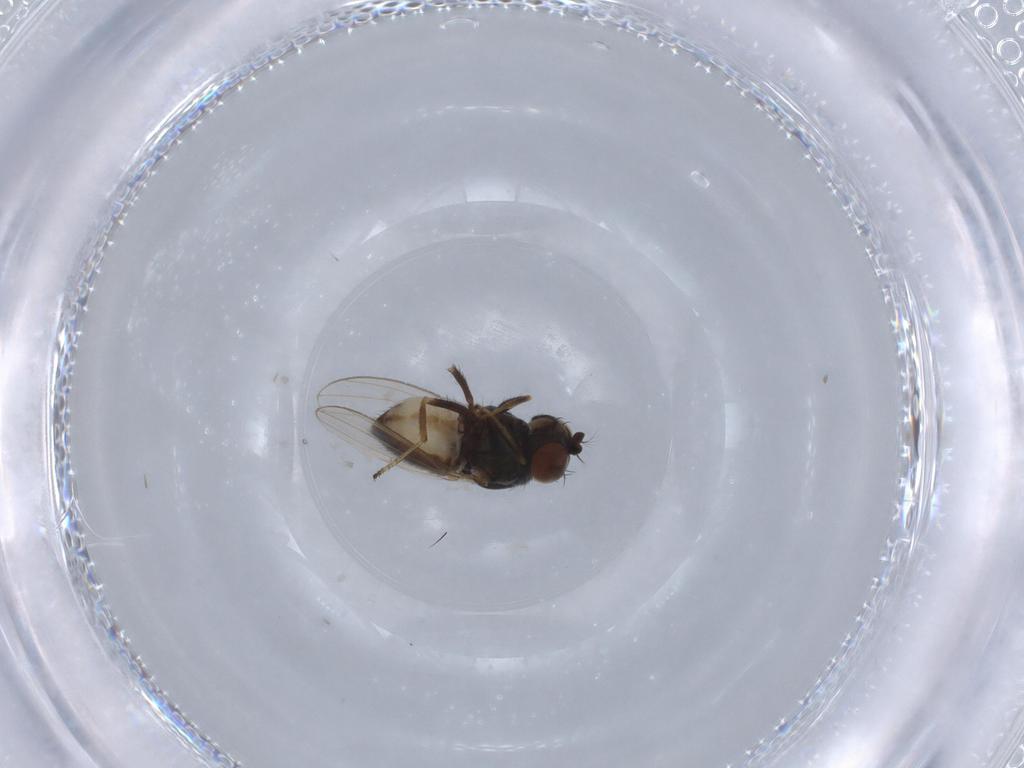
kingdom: Animalia
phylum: Arthropoda
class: Insecta
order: Diptera
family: Ephydridae
